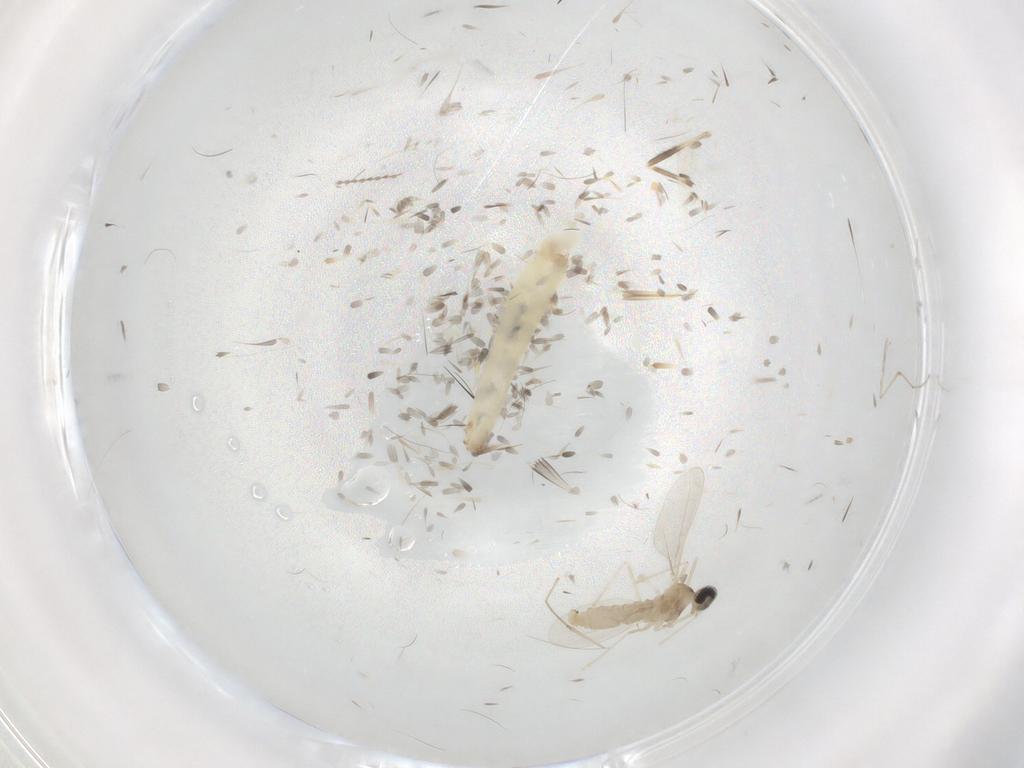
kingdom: Animalia
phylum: Arthropoda
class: Insecta
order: Diptera
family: Cecidomyiidae
